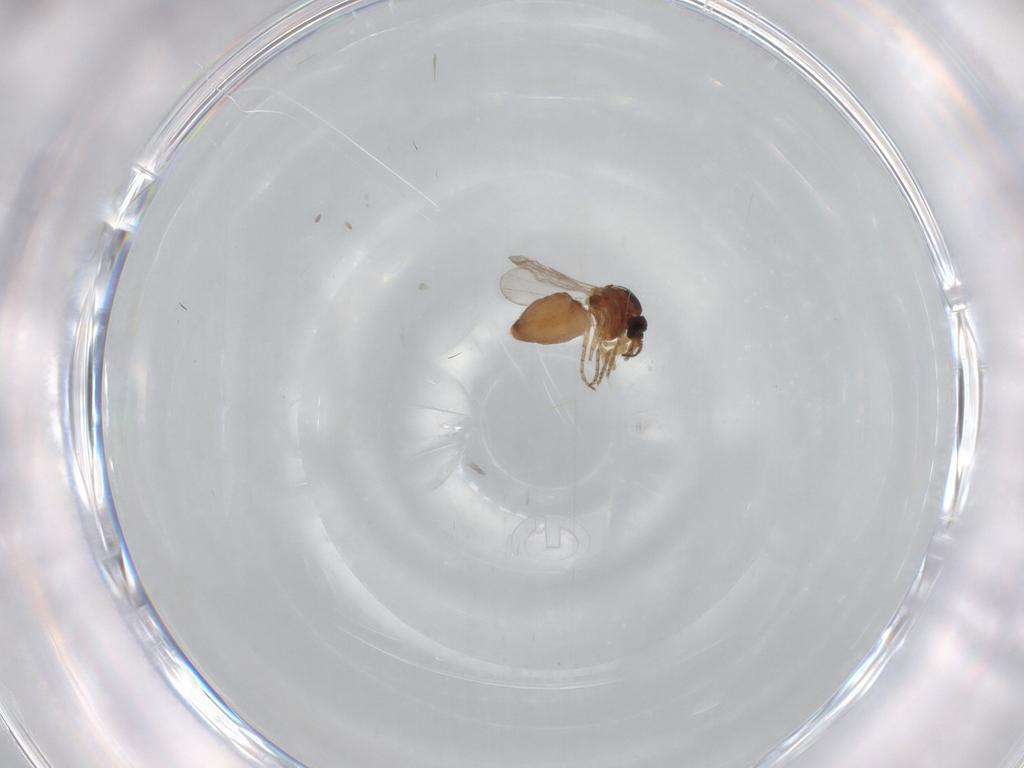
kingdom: Animalia
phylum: Arthropoda
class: Insecta
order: Diptera
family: Ceratopogonidae
